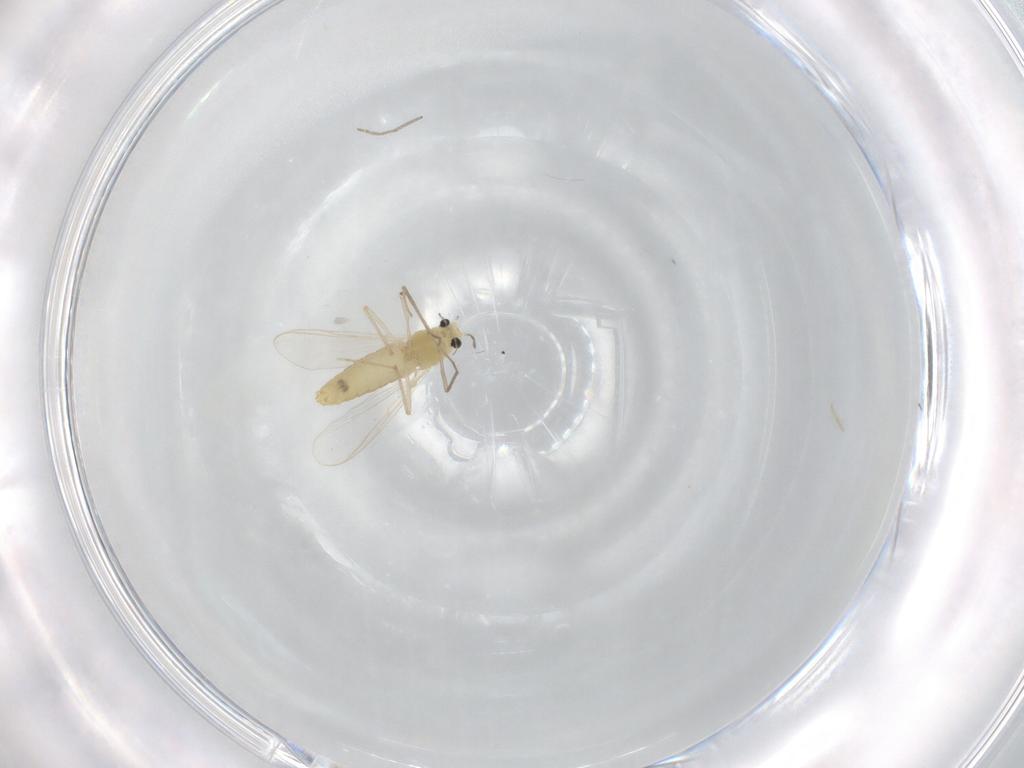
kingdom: Animalia
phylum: Arthropoda
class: Insecta
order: Diptera
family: Chironomidae
